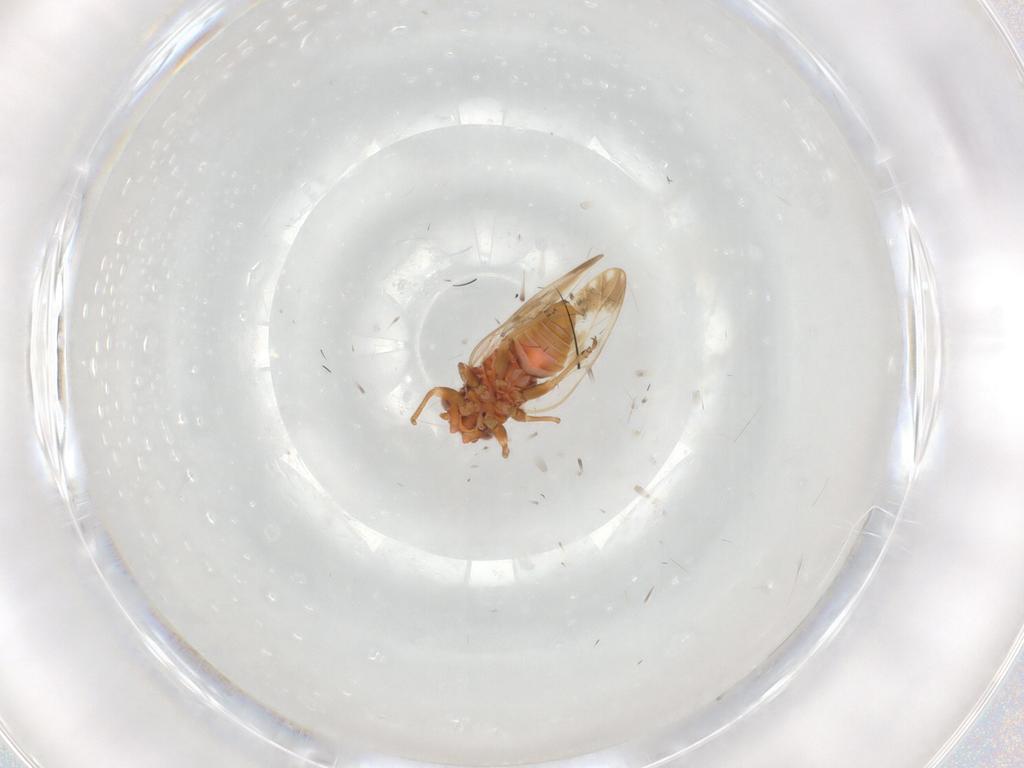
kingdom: Animalia
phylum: Arthropoda
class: Insecta
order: Hemiptera
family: Psyllidae
